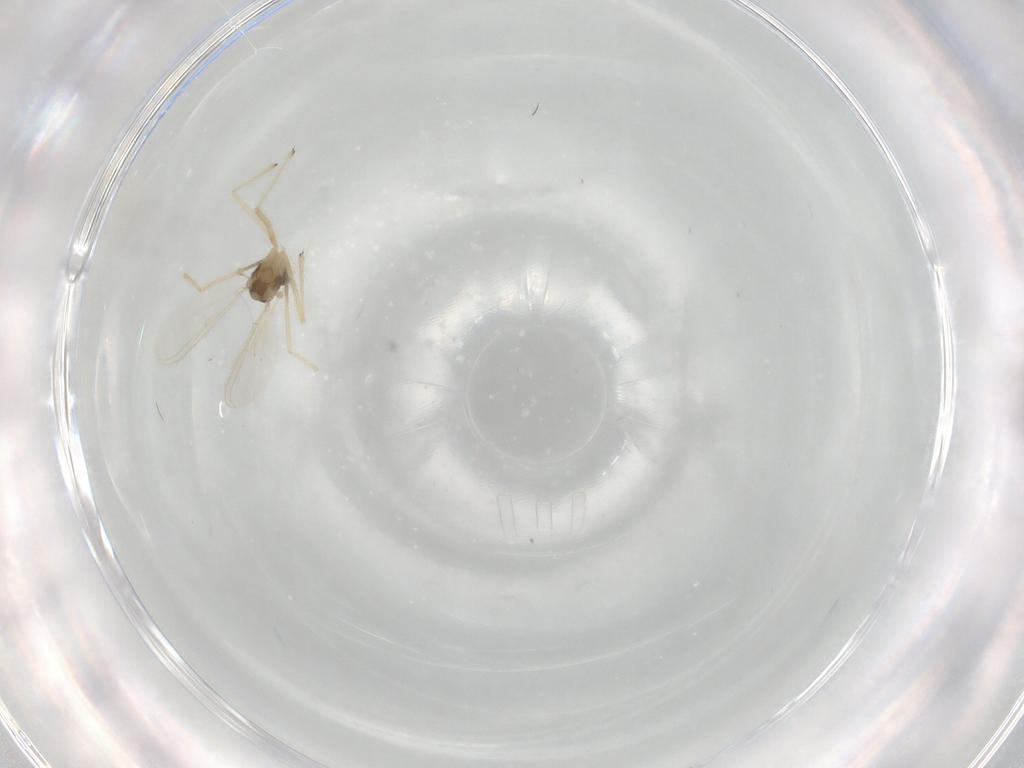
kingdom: Animalia
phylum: Arthropoda
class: Insecta
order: Diptera
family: Chironomidae
